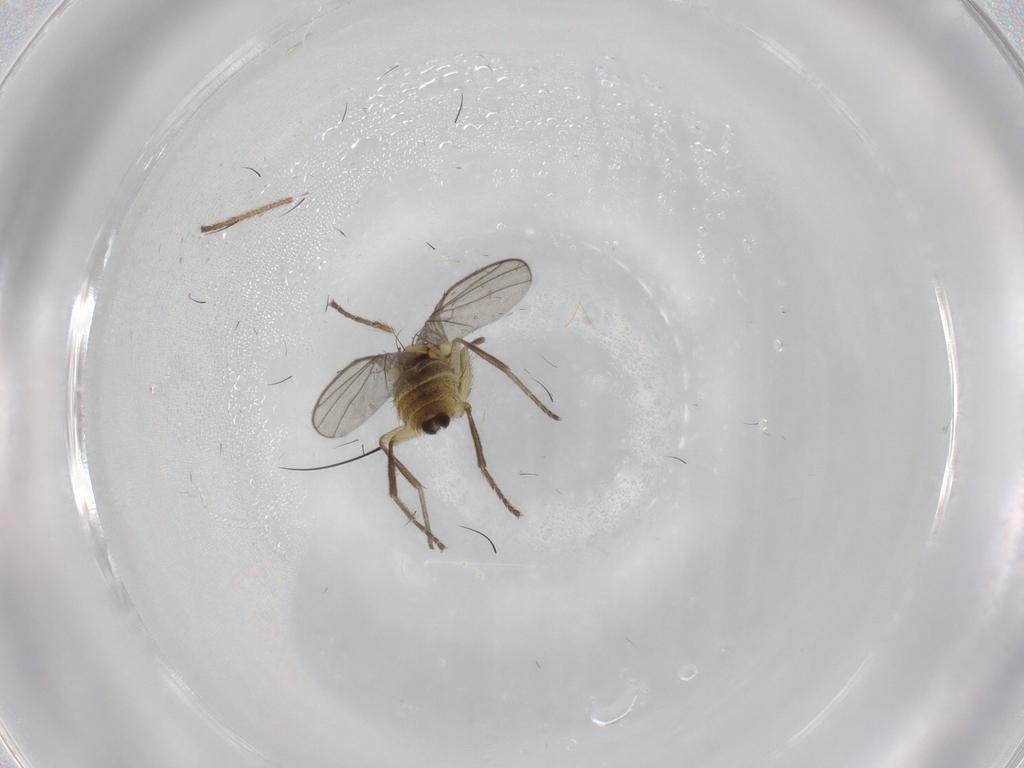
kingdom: Animalia
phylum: Arthropoda
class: Insecta
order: Diptera
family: Agromyzidae
